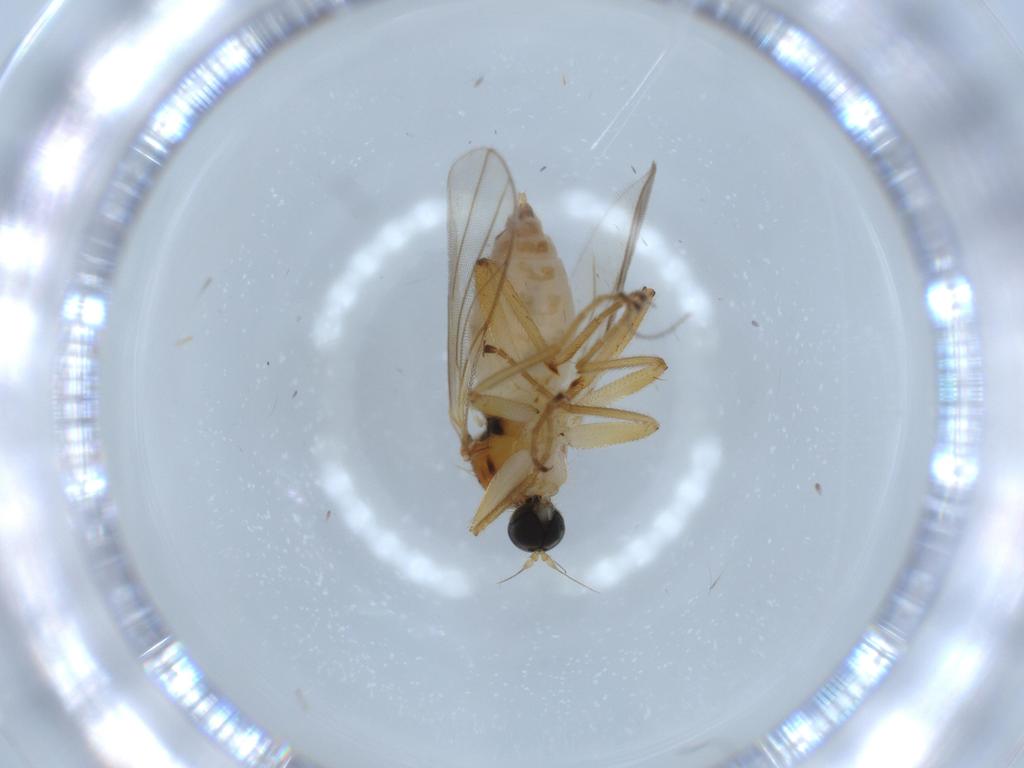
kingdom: Animalia
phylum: Arthropoda
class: Insecta
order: Diptera
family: Hybotidae
